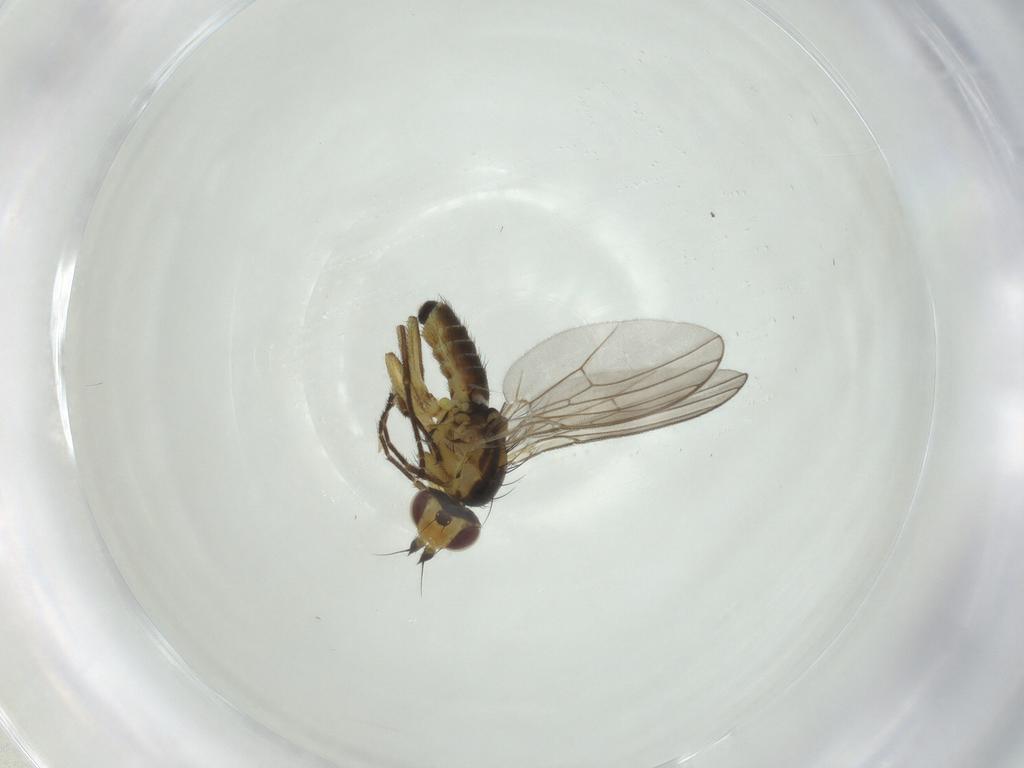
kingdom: Animalia
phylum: Arthropoda
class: Insecta
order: Diptera
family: Agromyzidae
